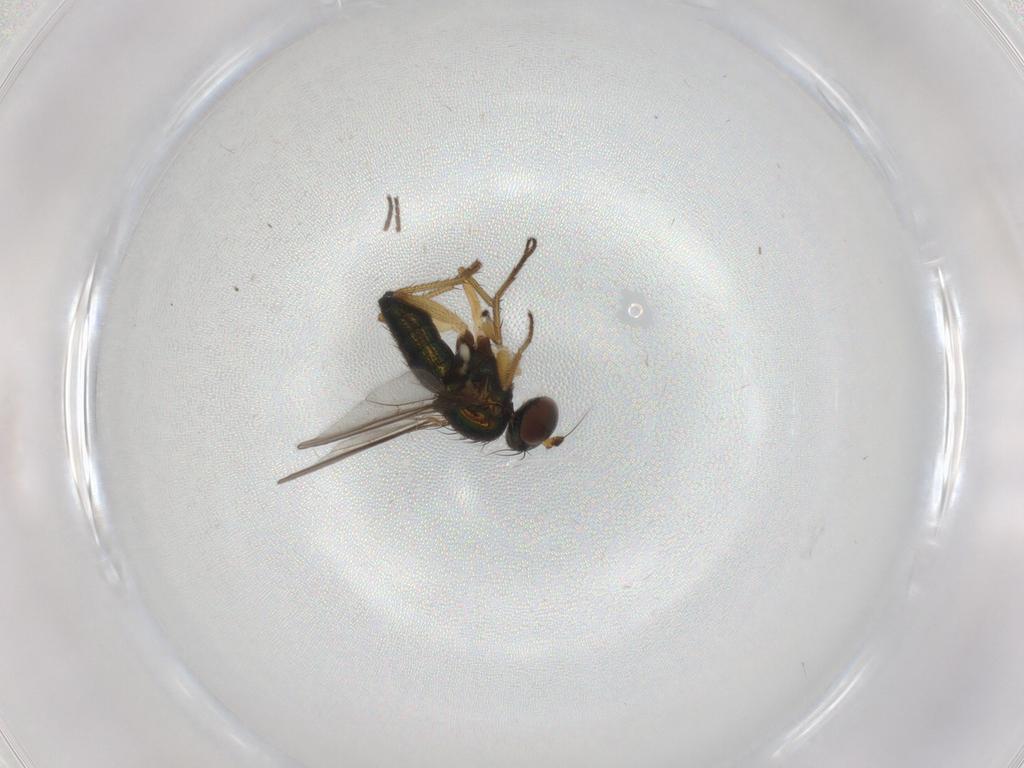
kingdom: Animalia
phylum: Arthropoda
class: Insecta
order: Diptera
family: Sciaridae
